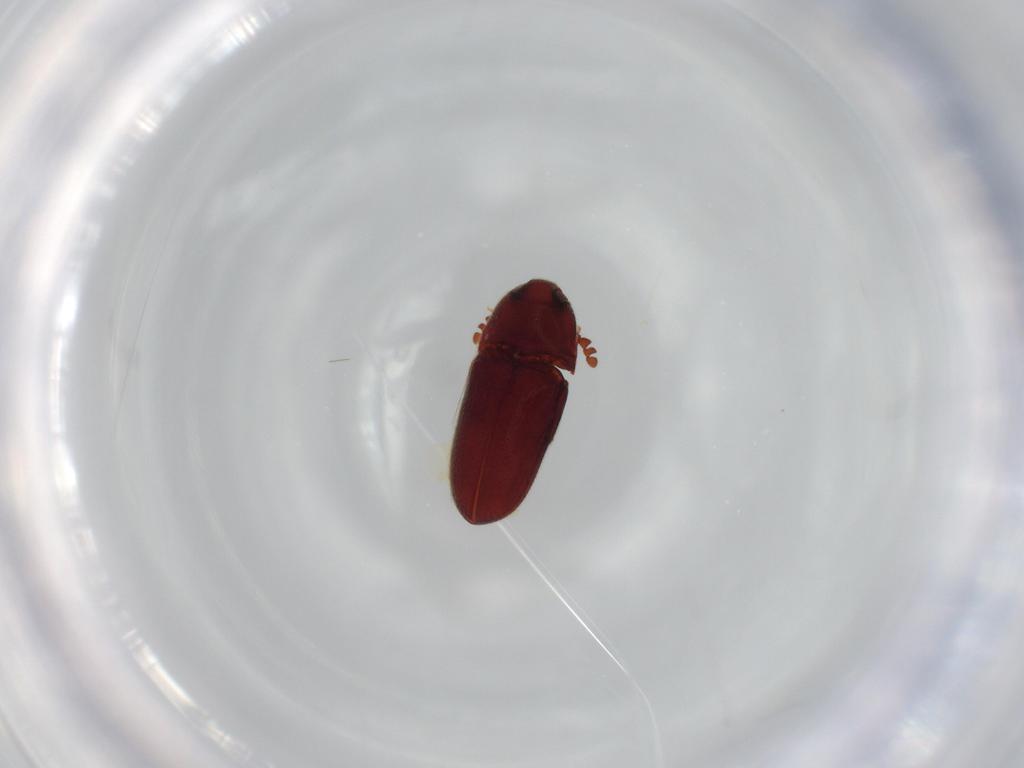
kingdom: Animalia
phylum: Arthropoda
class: Insecta
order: Coleoptera
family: Throscidae
